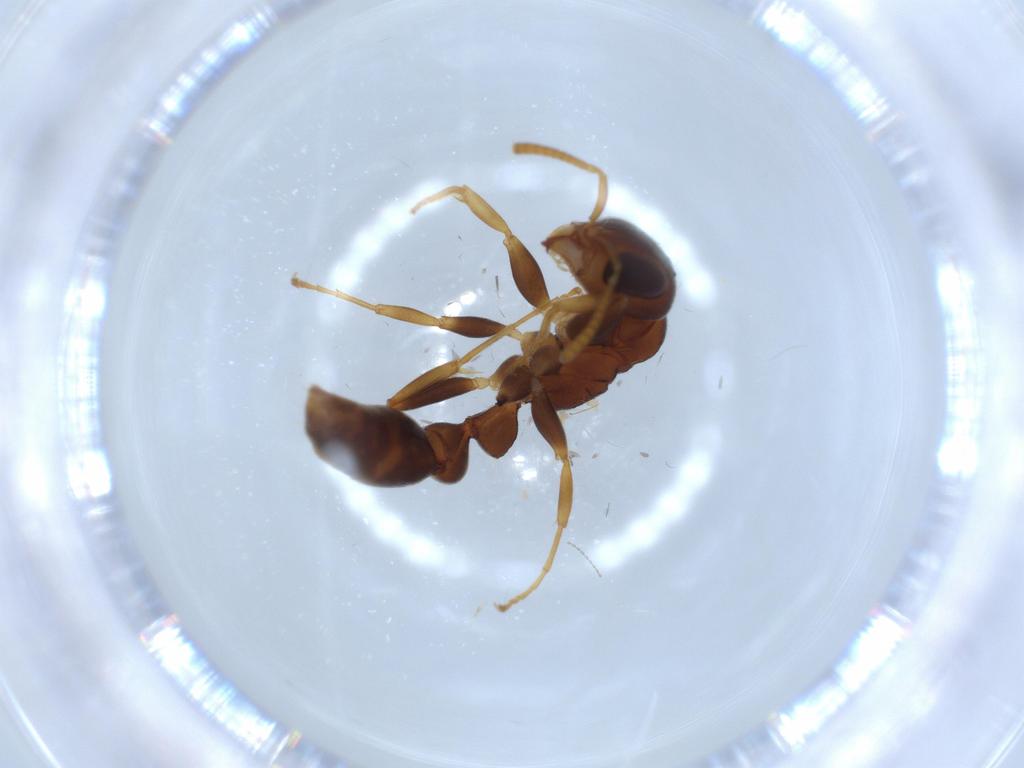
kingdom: Animalia
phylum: Arthropoda
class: Insecta
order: Hymenoptera
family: Formicidae
